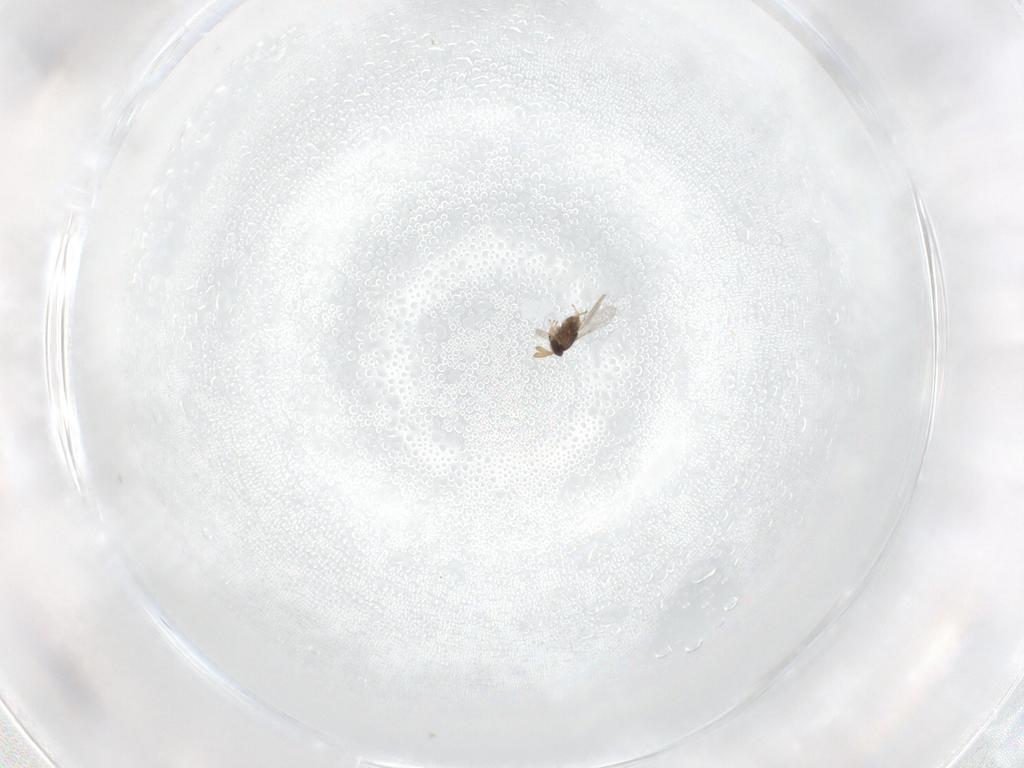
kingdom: Animalia
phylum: Arthropoda
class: Insecta
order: Hymenoptera
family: Encyrtidae
